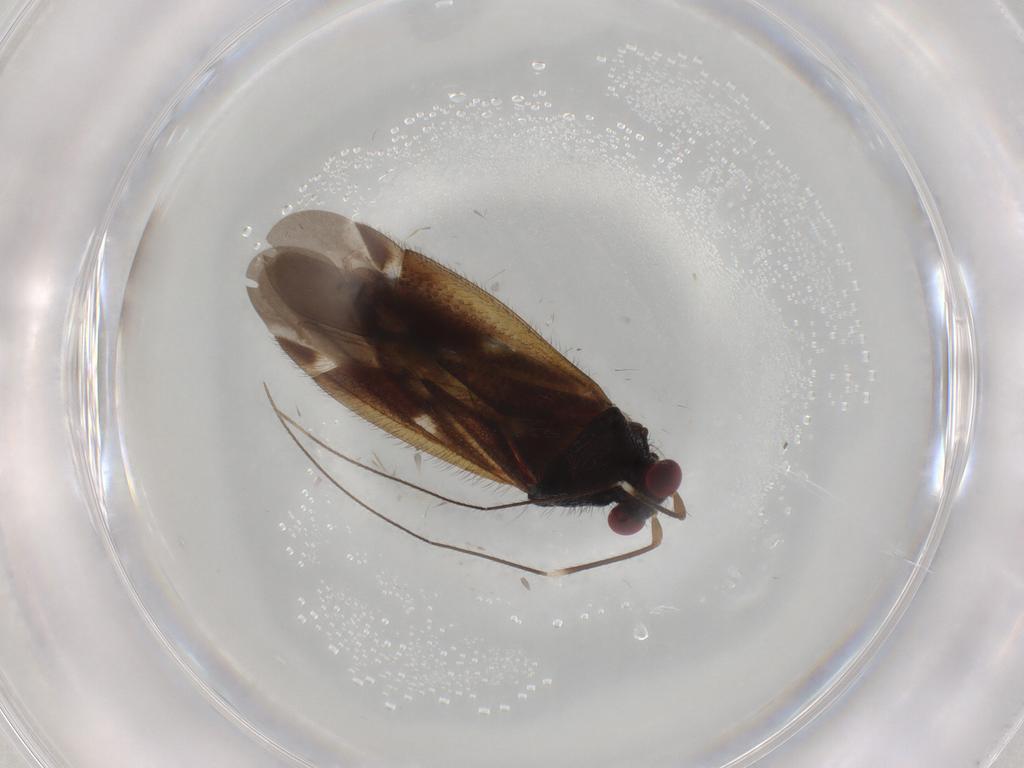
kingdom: Animalia
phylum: Arthropoda
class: Insecta
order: Hemiptera
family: Miridae
